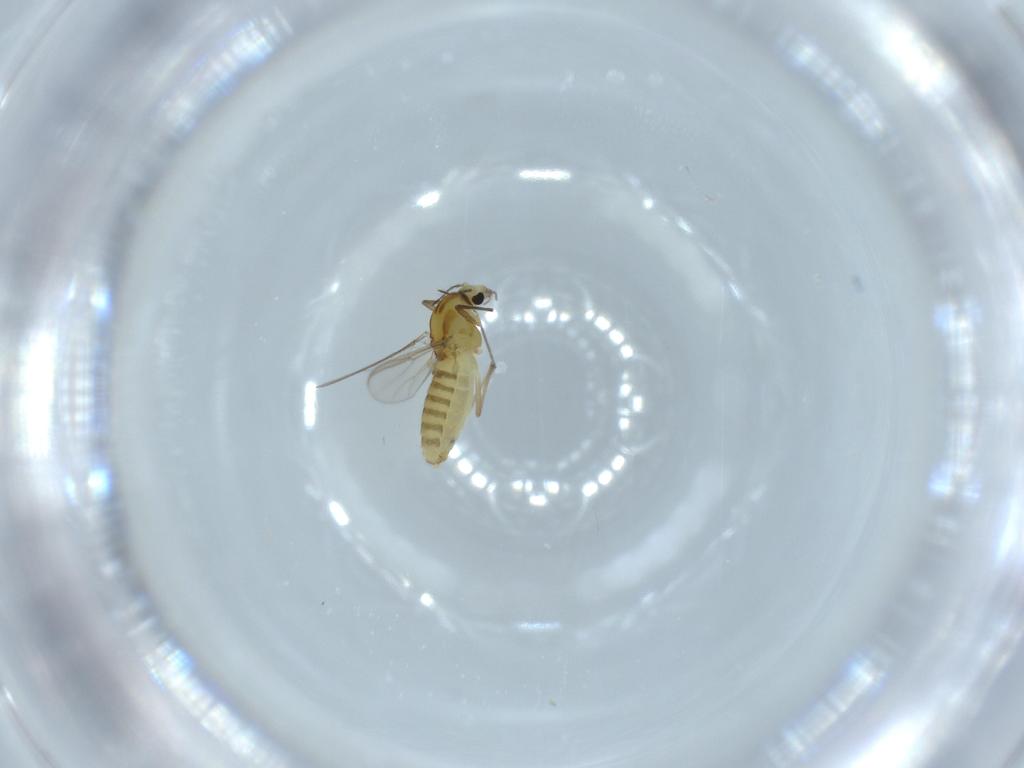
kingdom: Animalia
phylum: Arthropoda
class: Insecta
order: Diptera
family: Chironomidae
